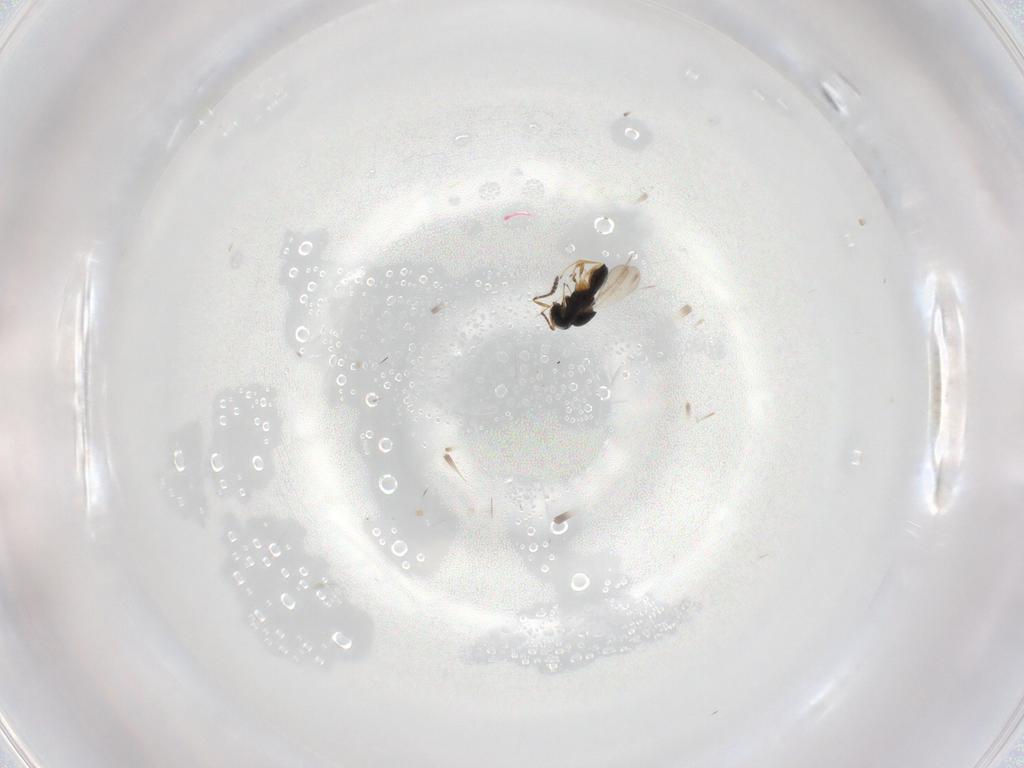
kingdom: Animalia
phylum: Arthropoda
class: Insecta
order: Hymenoptera
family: Scelionidae
